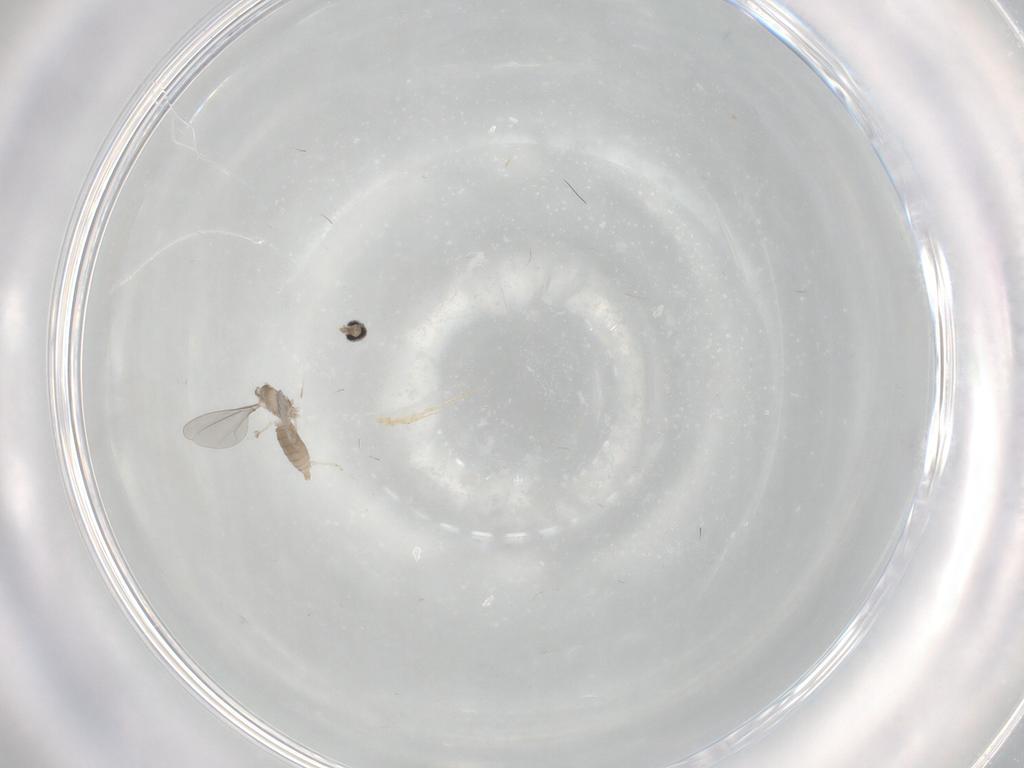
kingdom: Animalia
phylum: Arthropoda
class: Insecta
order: Diptera
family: Cecidomyiidae
